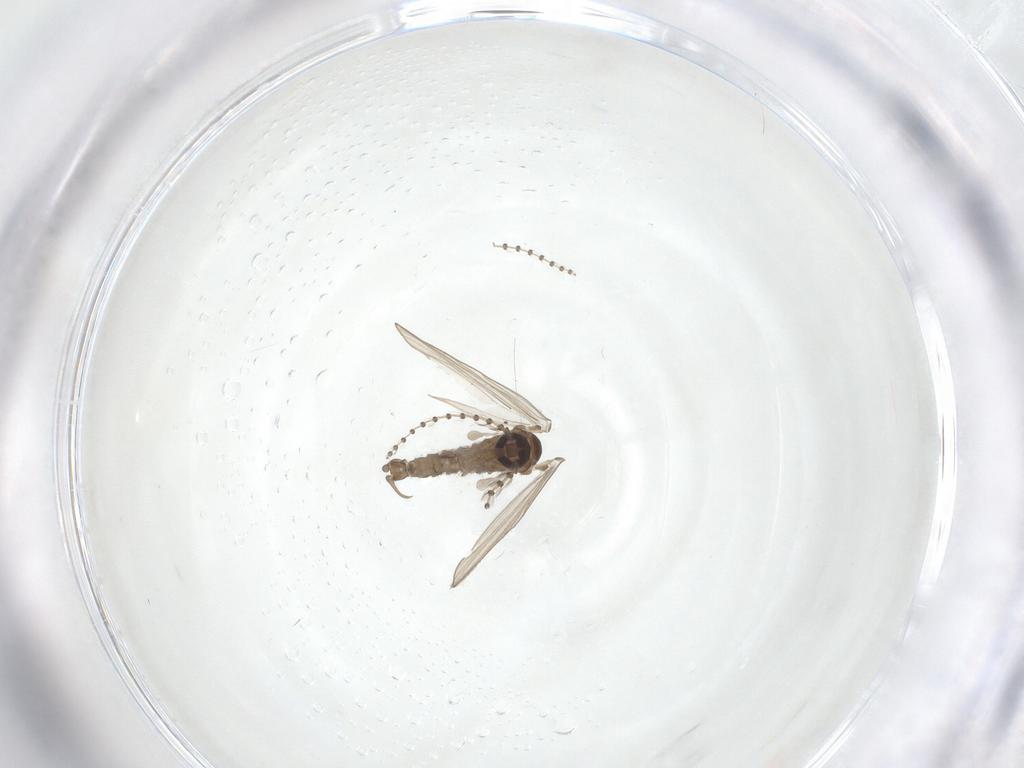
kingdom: Animalia
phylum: Arthropoda
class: Insecta
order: Diptera
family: Psychodidae
